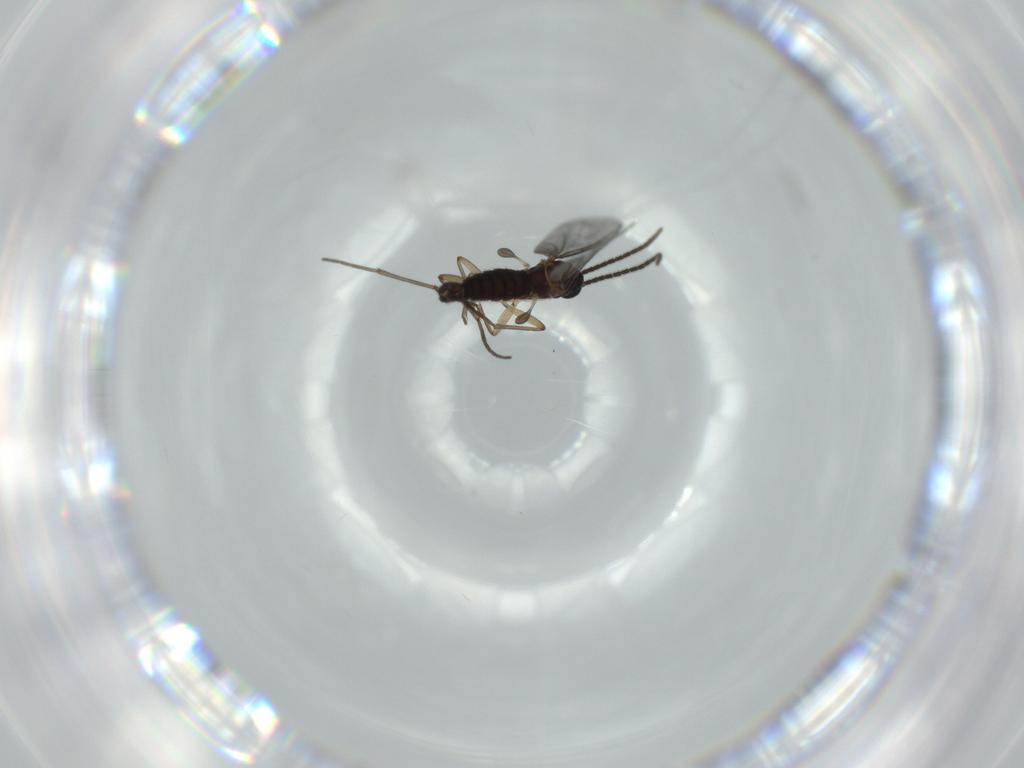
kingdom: Animalia
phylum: Arthropoda
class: Insecta
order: Diptera
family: Sciaridae
